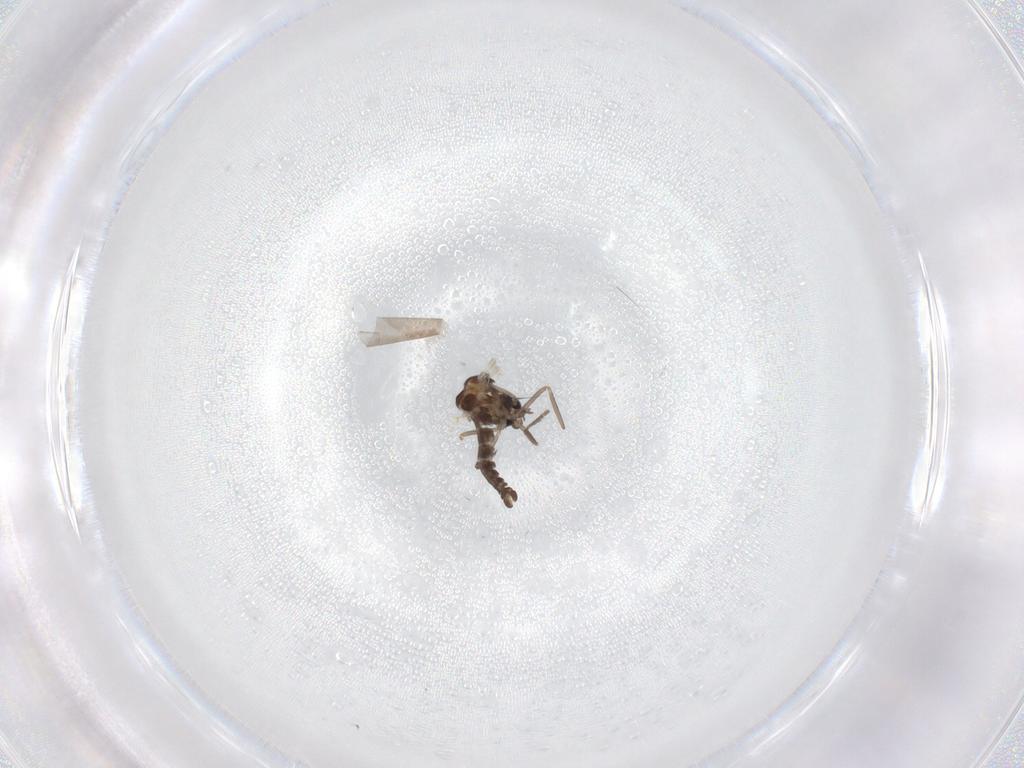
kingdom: Animalia
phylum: Arthropoda
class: Insecta
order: Diptera
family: Ceratopogonidae
